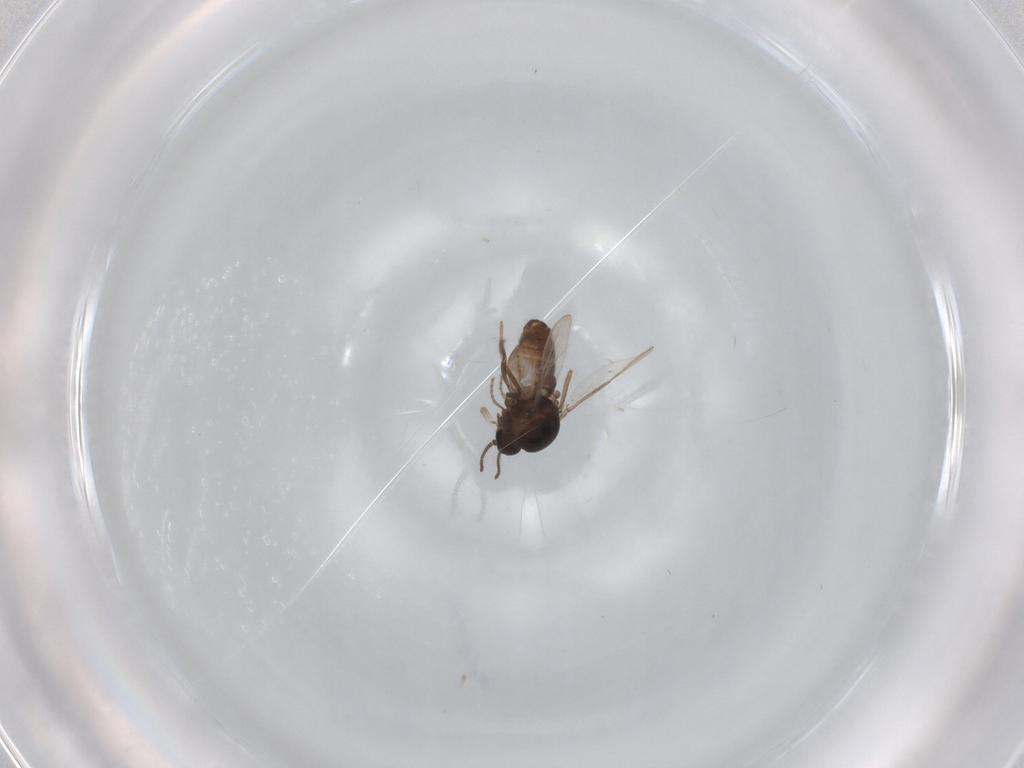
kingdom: Animalia
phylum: Arthropoda
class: Insecta
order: Diptera
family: Ceratopogonidae
